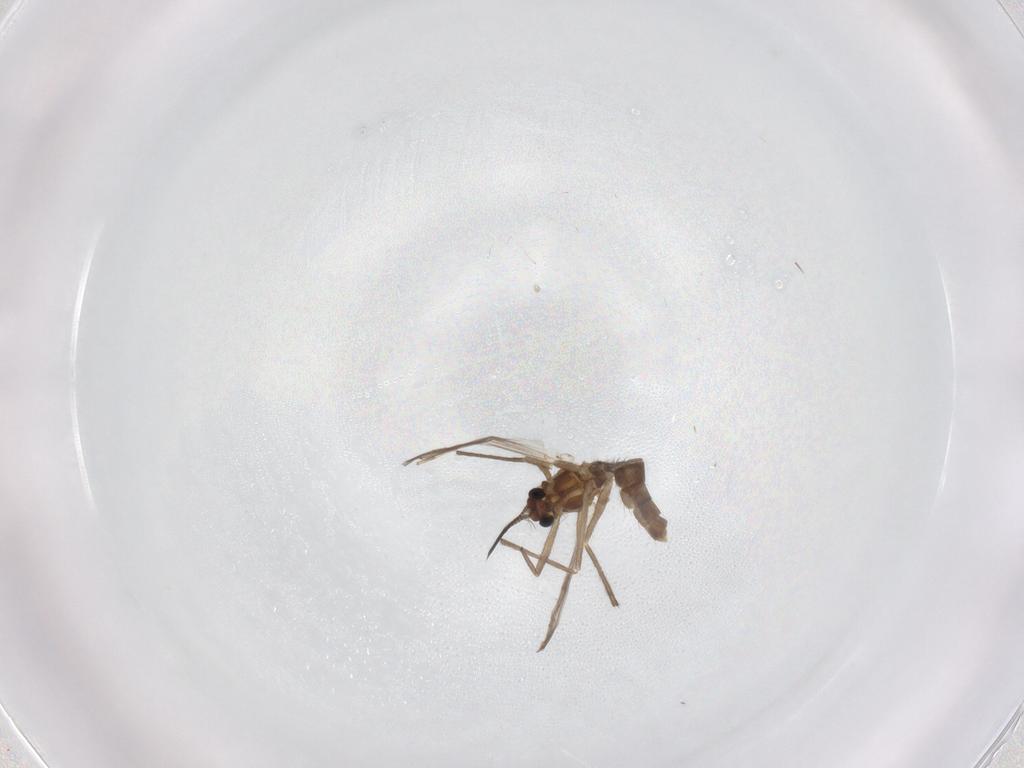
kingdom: Animalia
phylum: Arthropoda
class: Insecta
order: Diptera
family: Chironomidae
